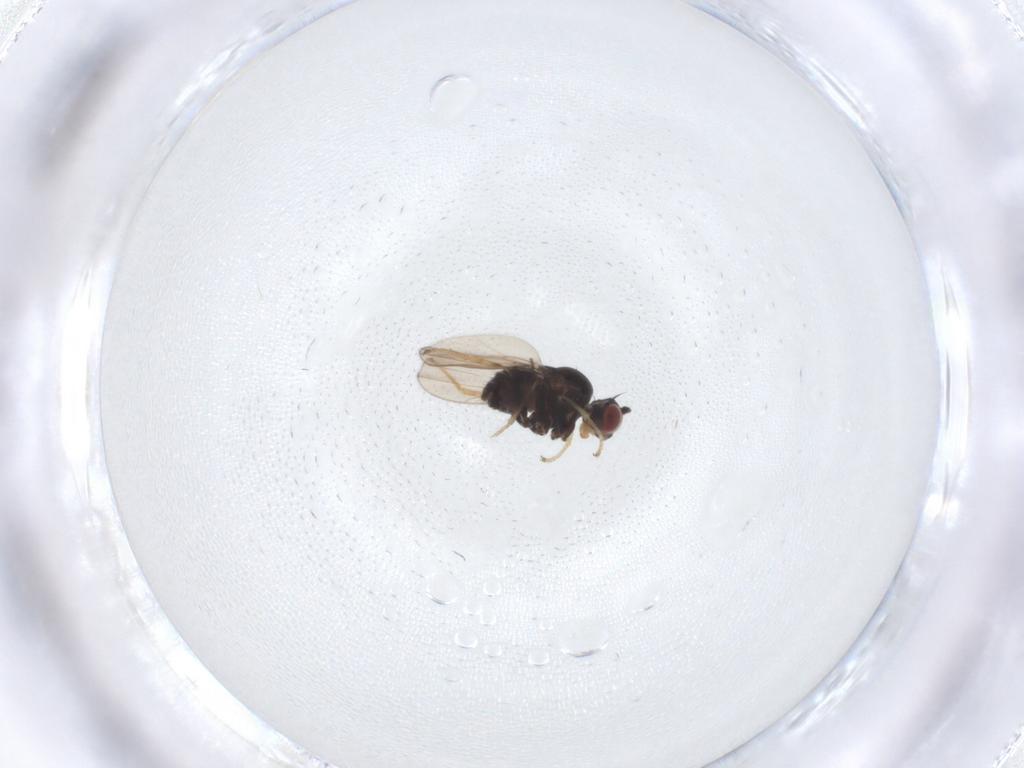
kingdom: Animalia
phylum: Arthropoda
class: Insecta
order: Diptera
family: Ephydridae
